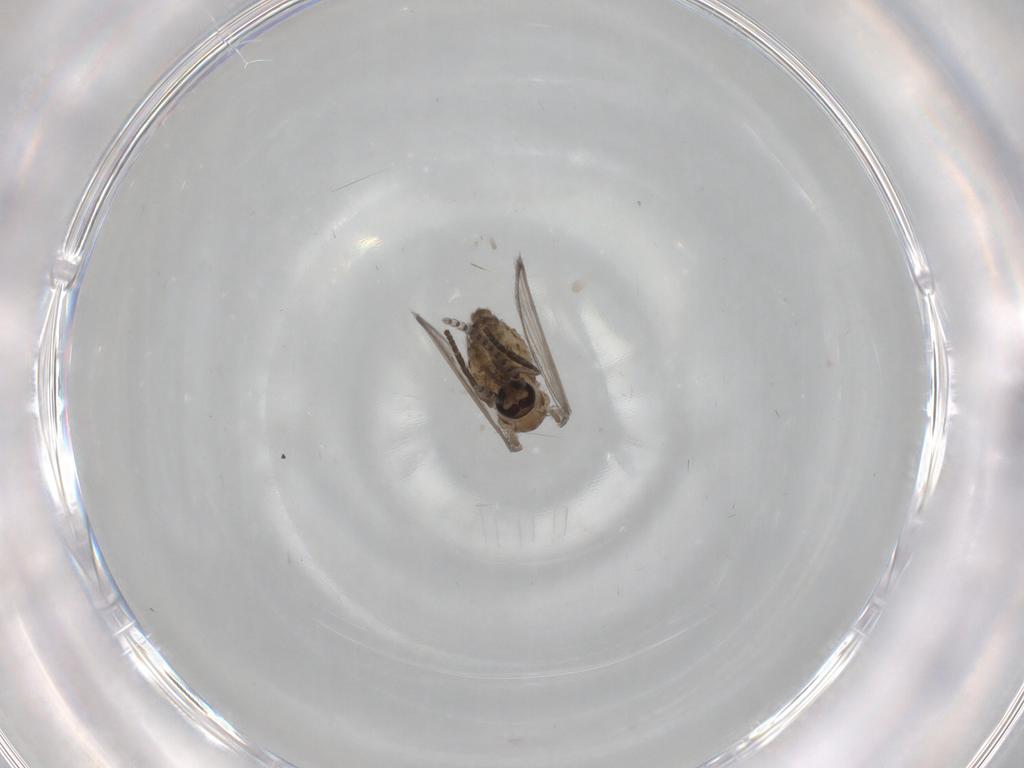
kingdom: Animalia
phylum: Arthropoda
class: Insecta
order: Diptera
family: Psychodidae
